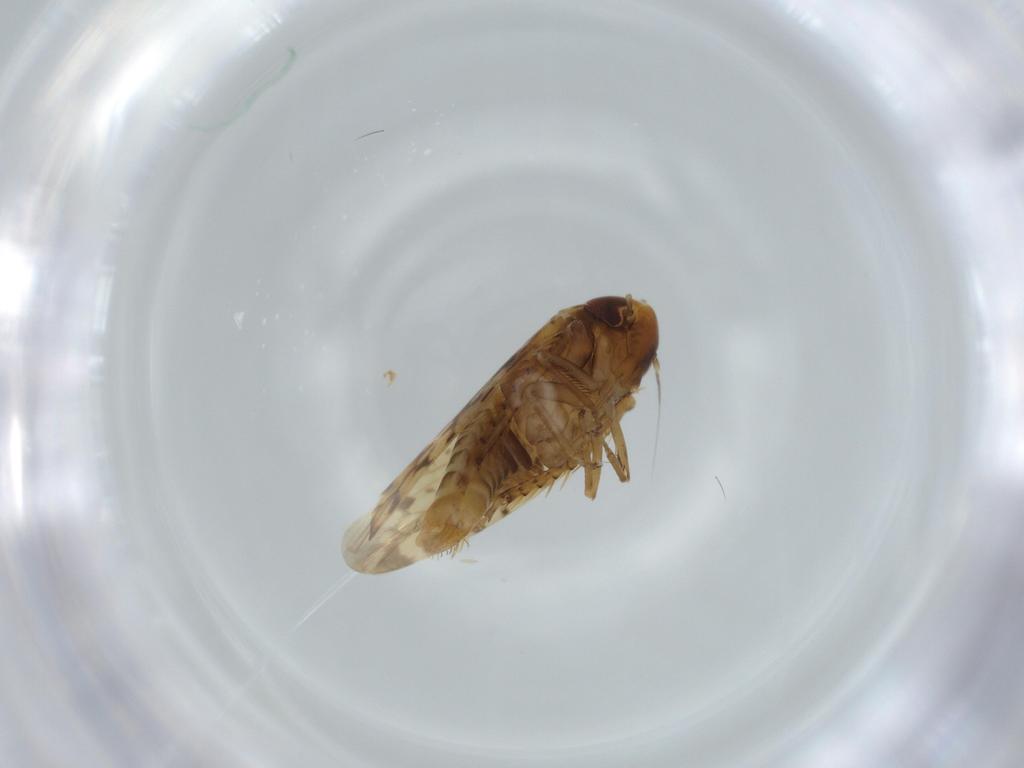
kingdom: Animalia
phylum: Arthropoda
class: Insecta
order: Hemiptera
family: Cicadellidae
